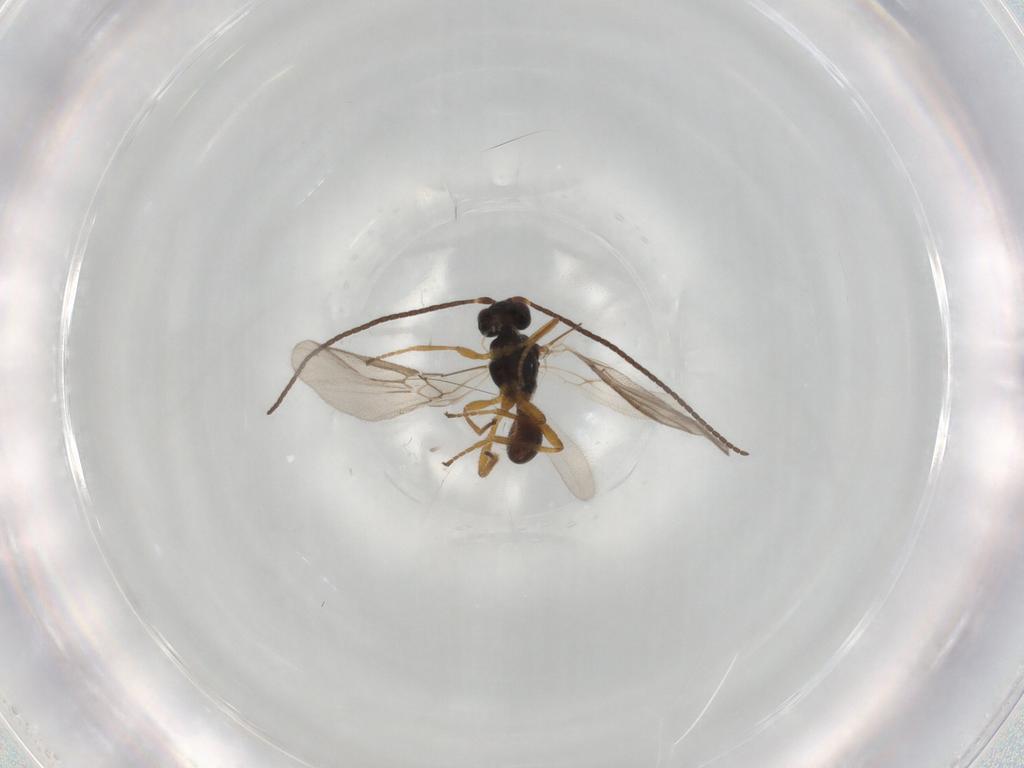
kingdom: Animalia
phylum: Arthropoda
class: Insecta
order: Hymenoptera
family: Braconidae
